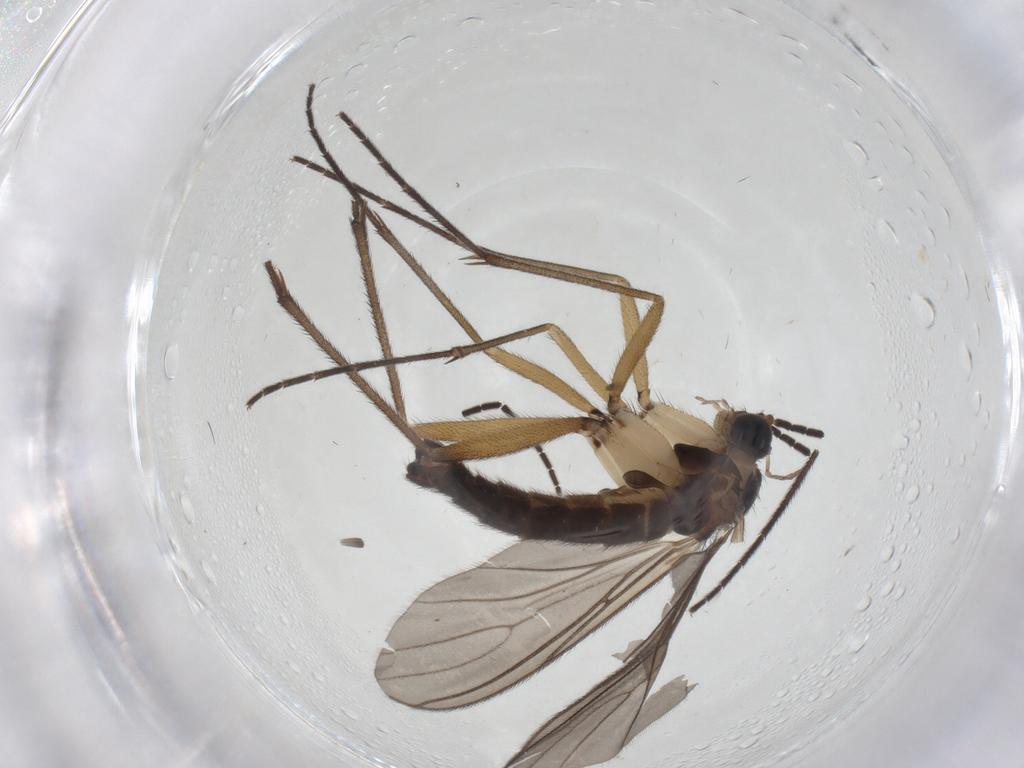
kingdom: Animalia
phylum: Arthropoda
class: Insecta
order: Diptera
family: Sciaridae
